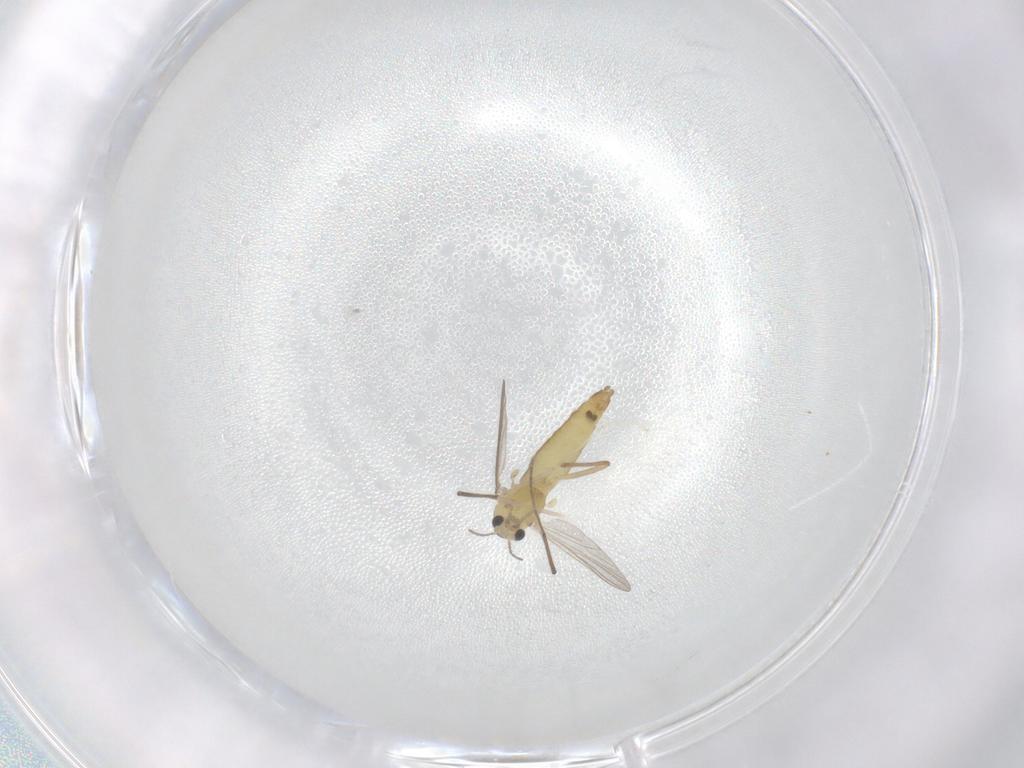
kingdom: Animalia
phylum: Arthropoda
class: Insecta
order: Diptera
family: Chironomidae
